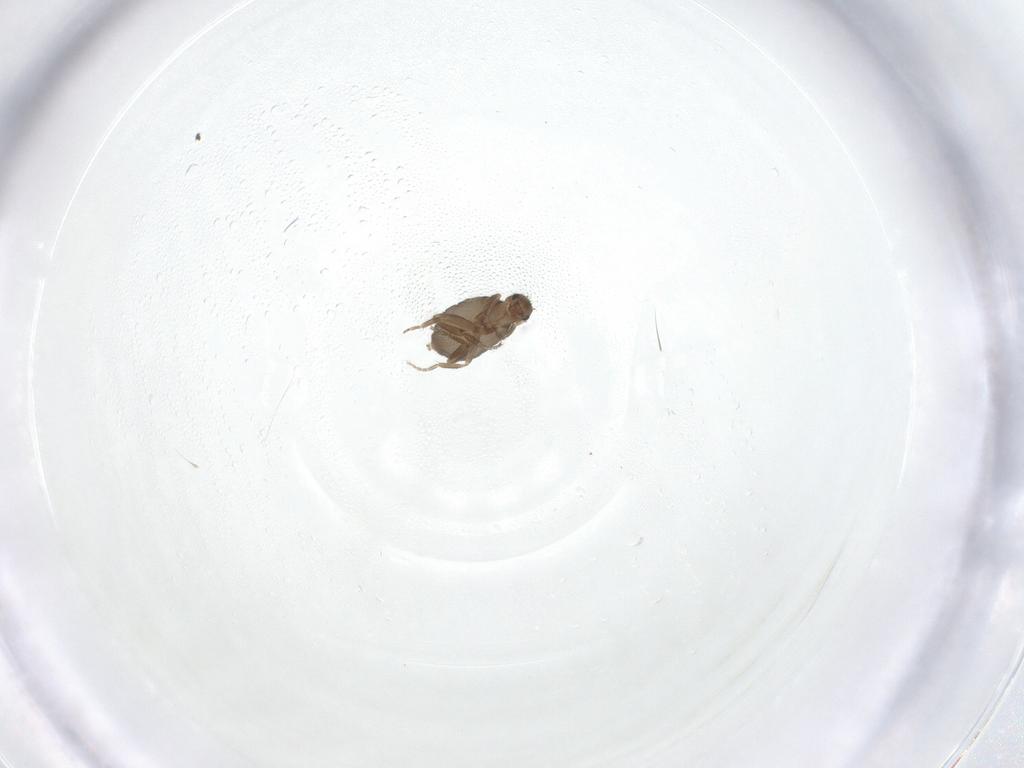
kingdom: Animalia
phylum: Arthropoda
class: Insecta
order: Diptera
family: Phoridae
